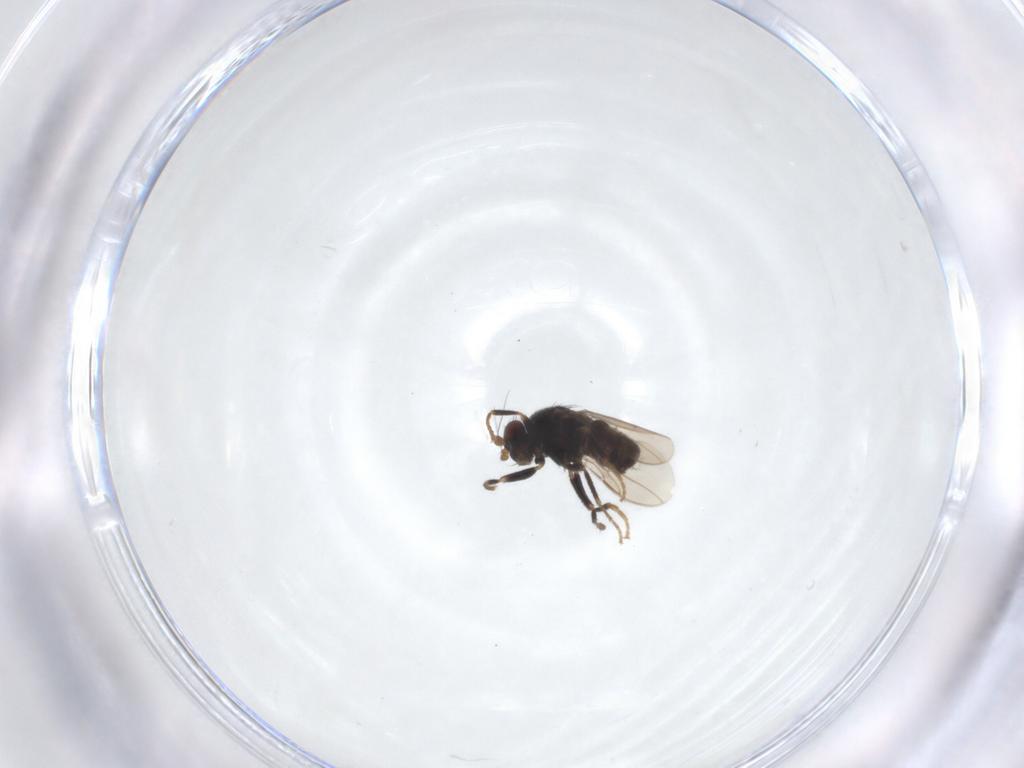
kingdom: Animalia
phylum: Arthropoda
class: Insecta
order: Diptera
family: Sphaeroceridae
